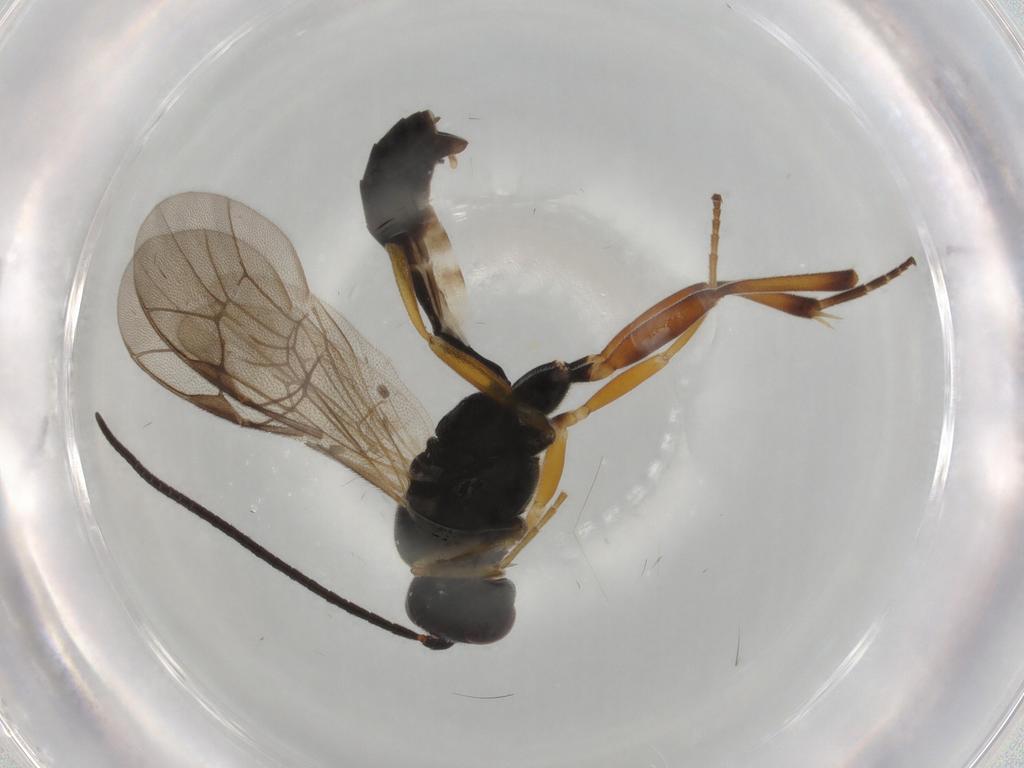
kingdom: Animalia
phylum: Arthropoda
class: Insecta
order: Hymenoptera
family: Ichneumonidae
